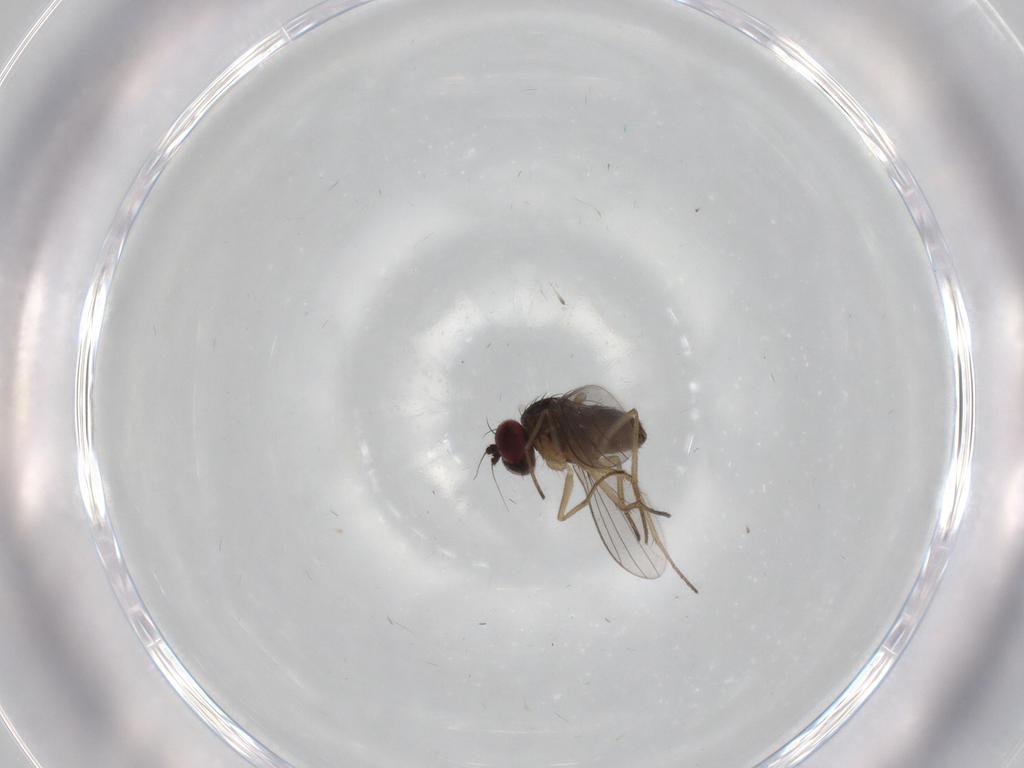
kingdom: Animalia
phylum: Arthropoda
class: Insecta
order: Diptera
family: Dolichopodidae
